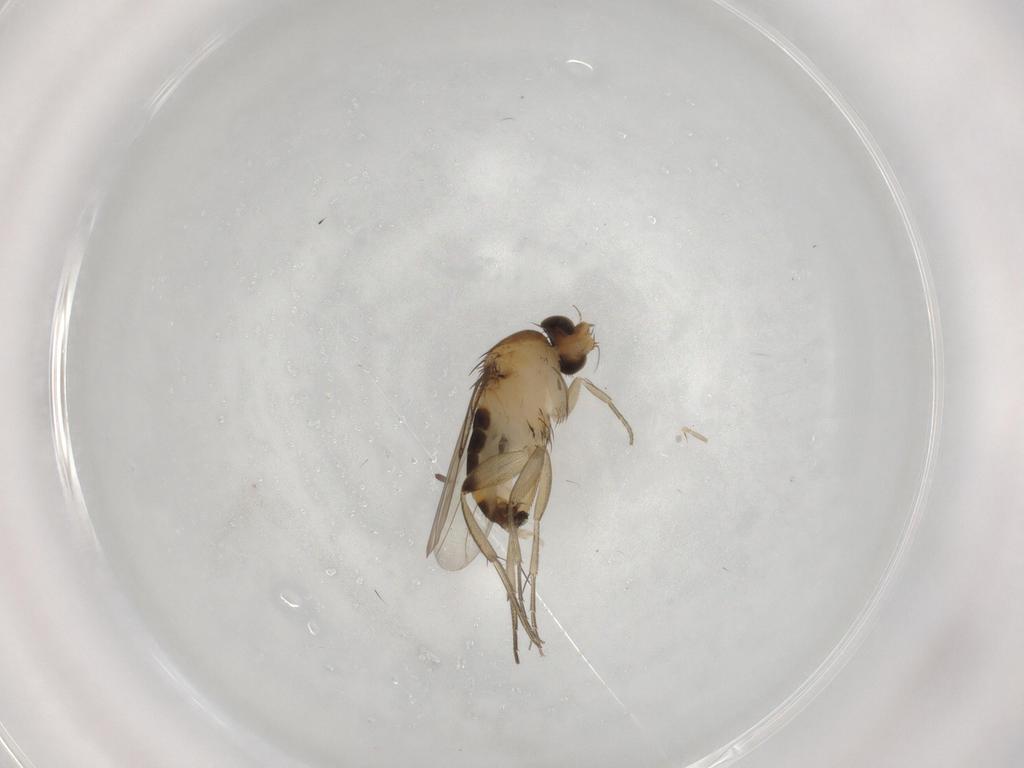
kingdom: Animalia
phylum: Arthropoda
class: Insecta
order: Diptera
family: Phoridae
